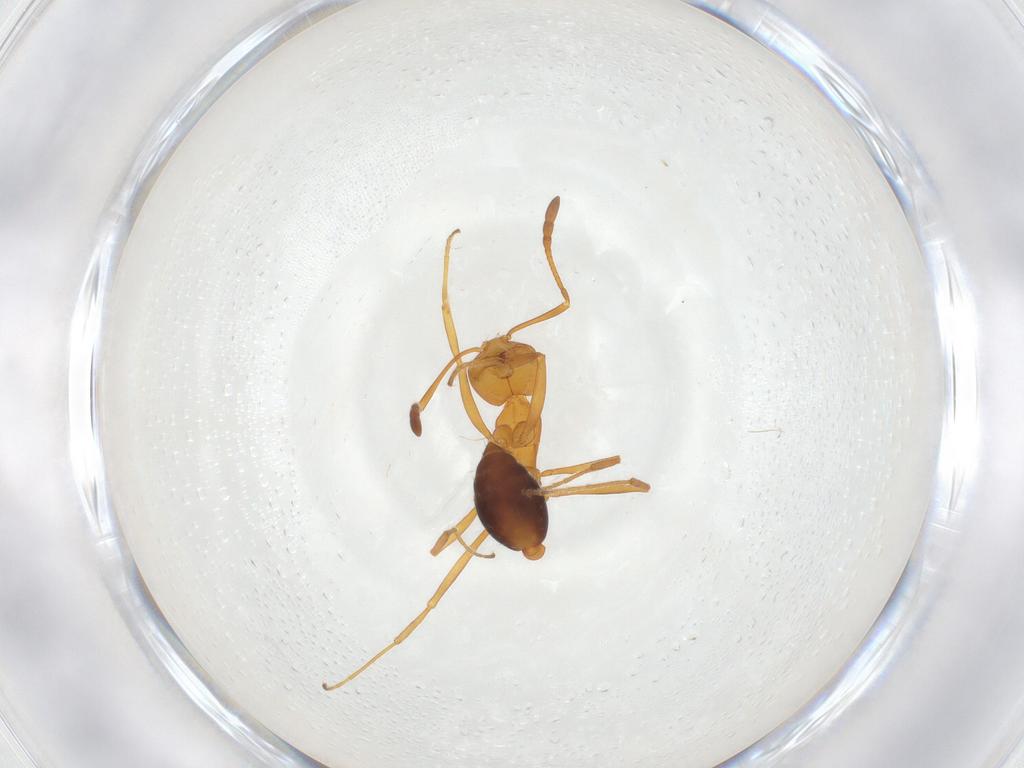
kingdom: Animalia
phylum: Arthropoda
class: Insecta
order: Hymenoptera
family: Formicidae
